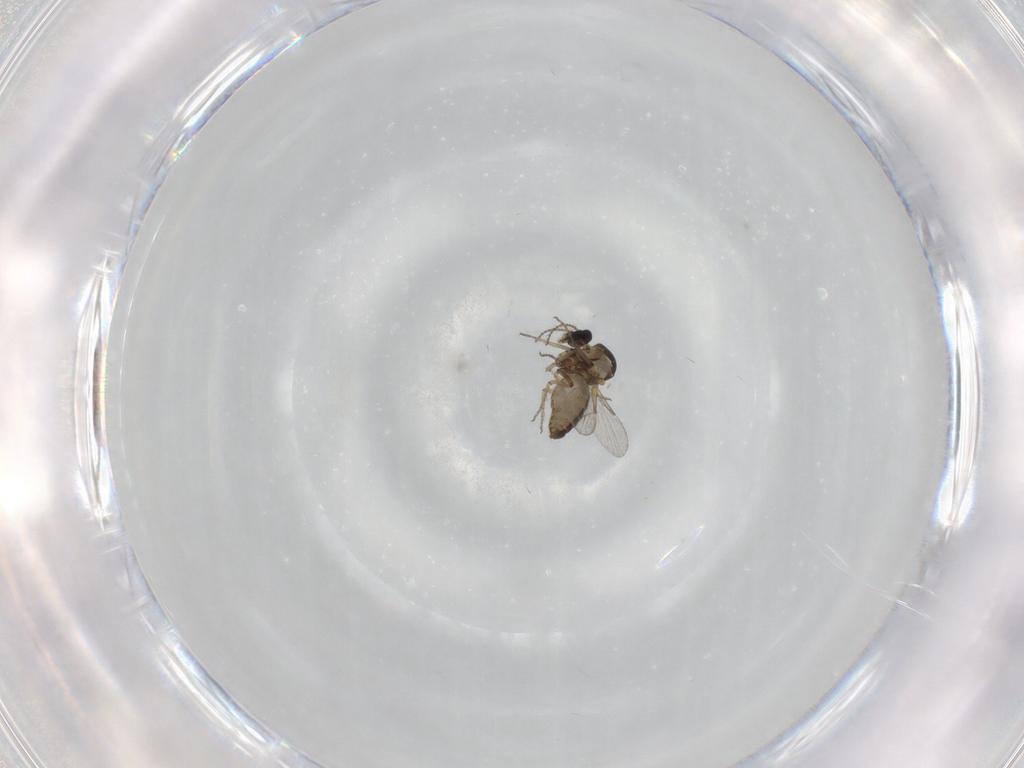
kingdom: Animalia
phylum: Arthropoda
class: Insecta
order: Diptera
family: Ceratopogonidae
